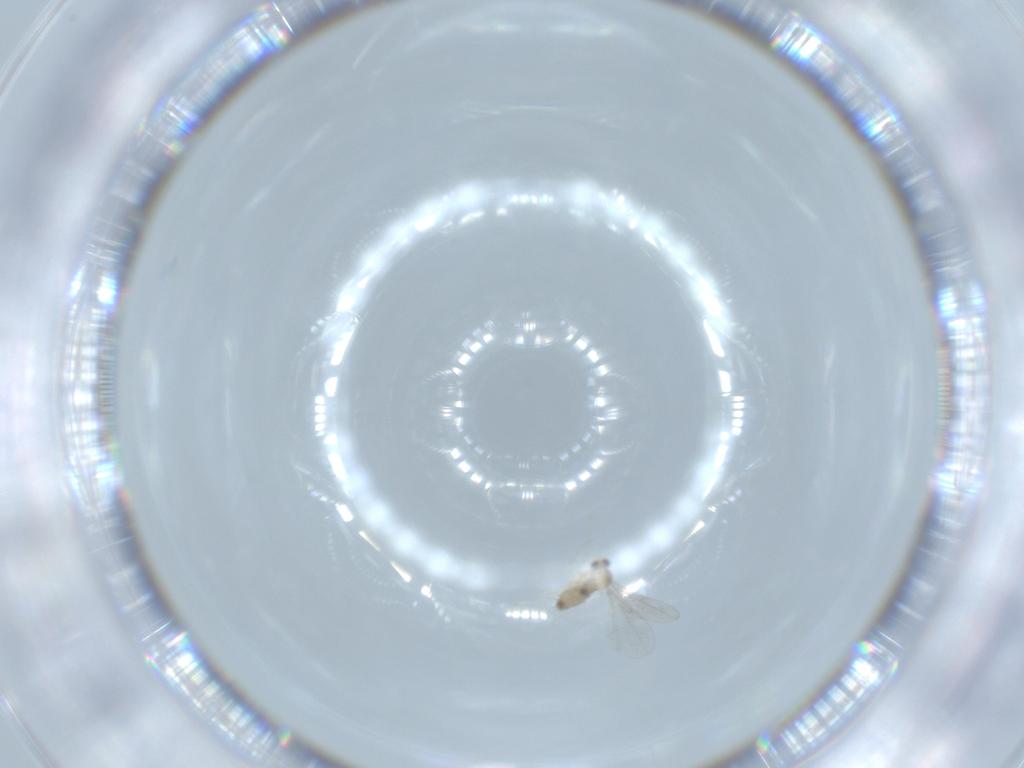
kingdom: Animalia
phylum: Arthropoda
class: Insecta
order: Diptera
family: Cecidomyiidae
